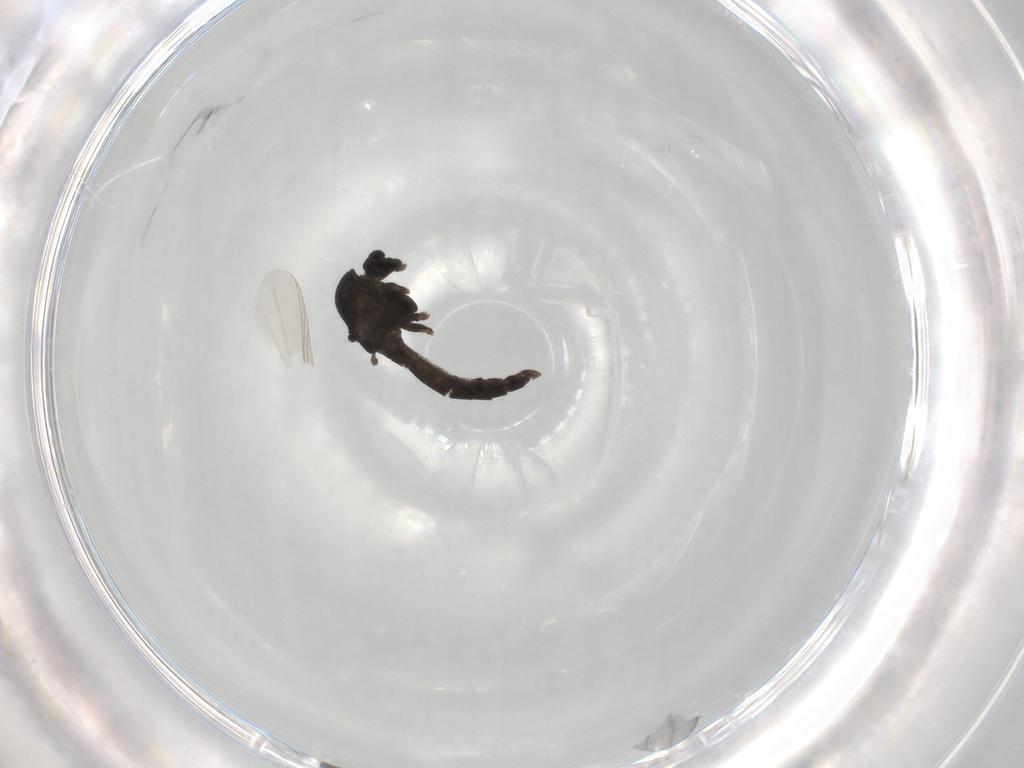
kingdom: Animalia
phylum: Arthropoda
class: Insecta
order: Diptera
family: Chironomidae
